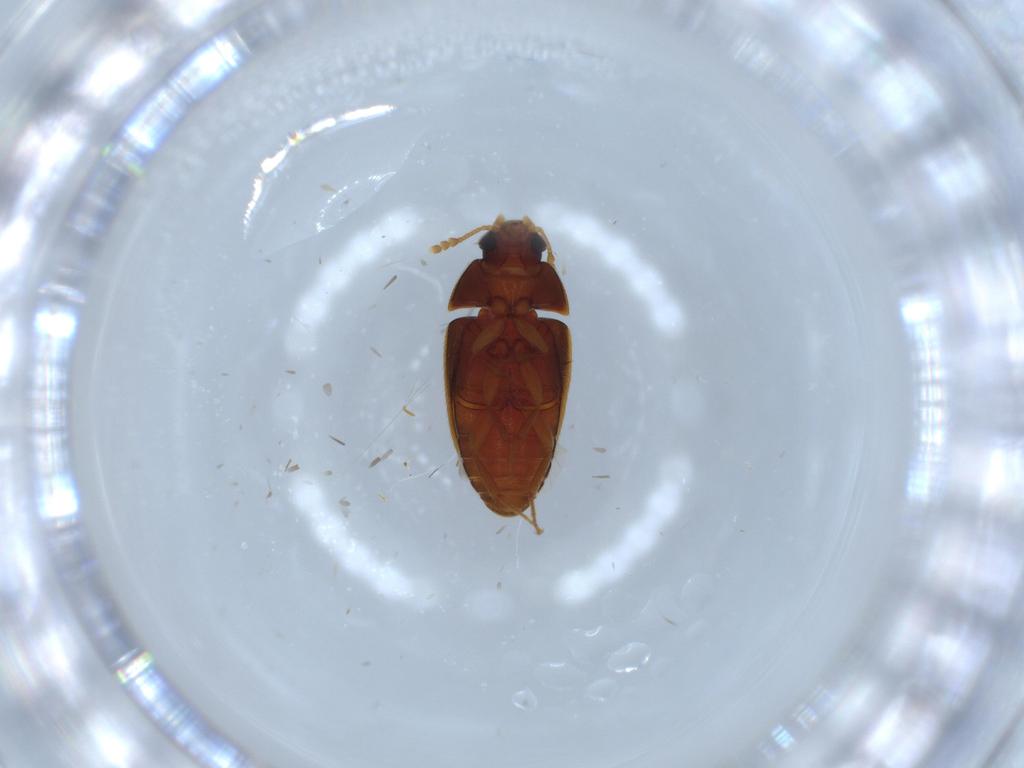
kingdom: Animalia
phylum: Arthropoda
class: Insecta
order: Coleoptera
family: Mycetophagidae
